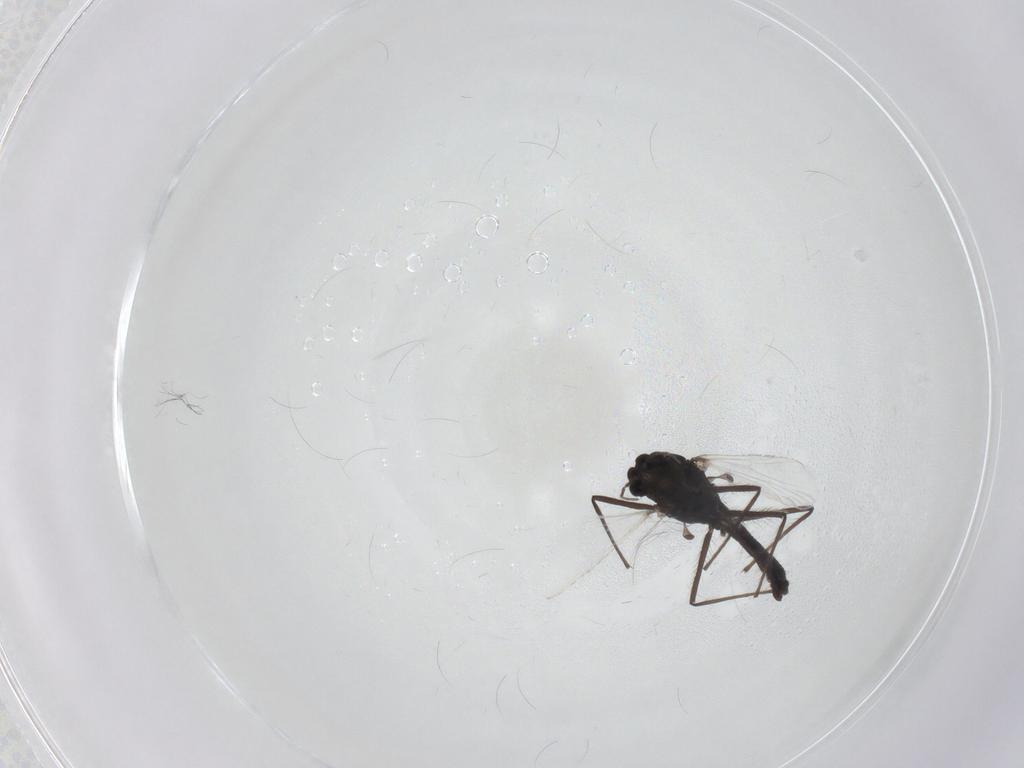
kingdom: Animalia
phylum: Arthropoda
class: Insecta
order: Diptera
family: Chironomidae
